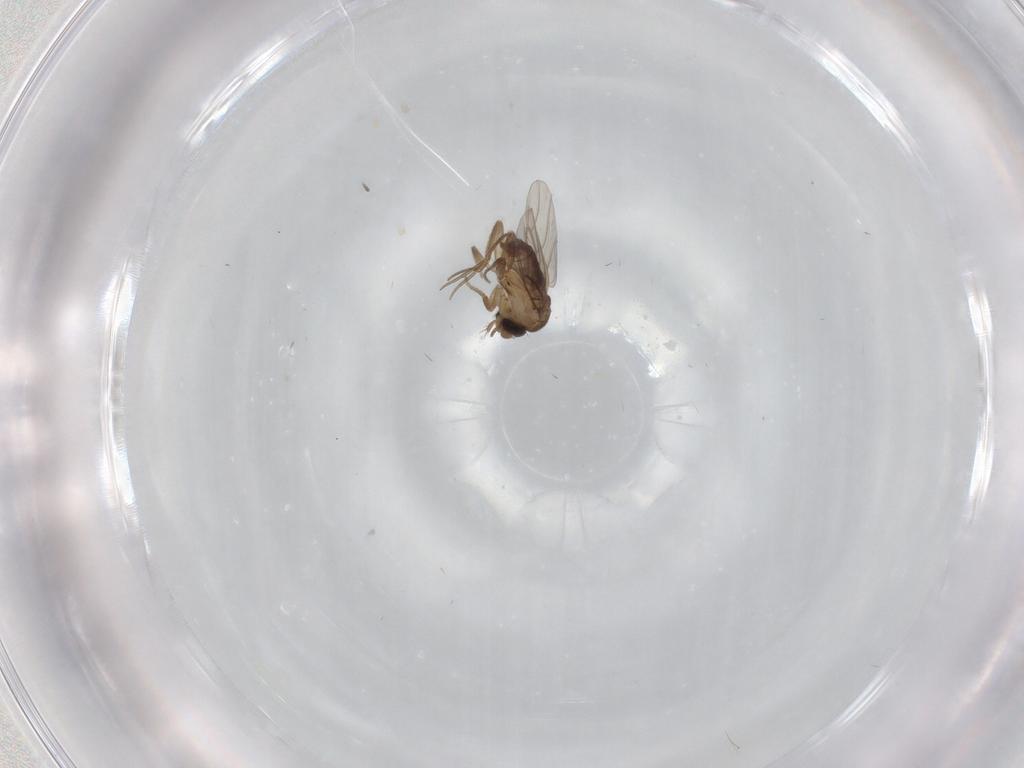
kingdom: Animalia
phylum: Arthropoda
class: Insecta
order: Diptera
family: Phoridae
